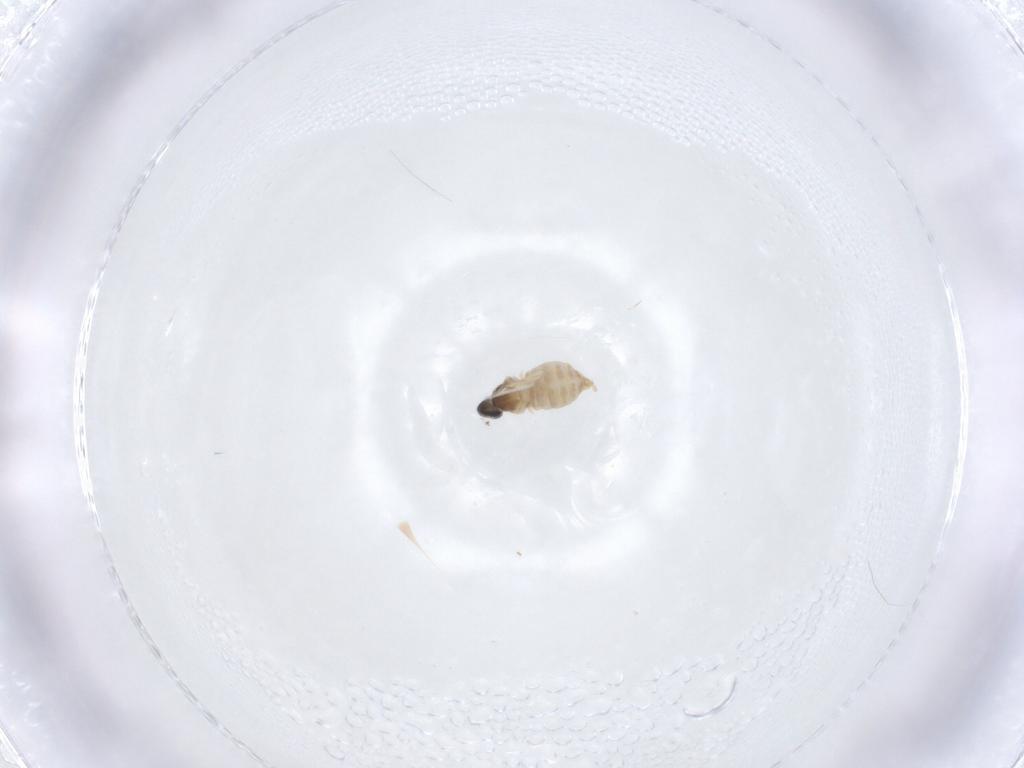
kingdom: Animalia
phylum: Arthropoda
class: Insecta
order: Diptera
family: Cecidomyiidae
